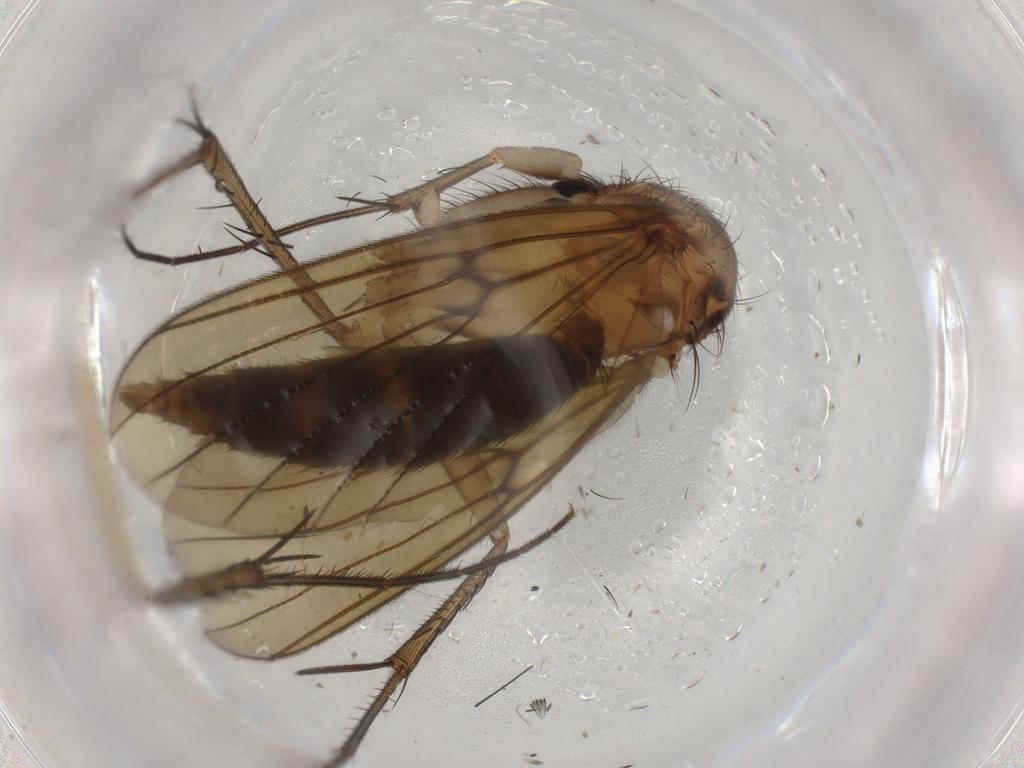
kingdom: Animalia
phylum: Arthropoda
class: Insecta
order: Diptera
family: Mycetophilidae
